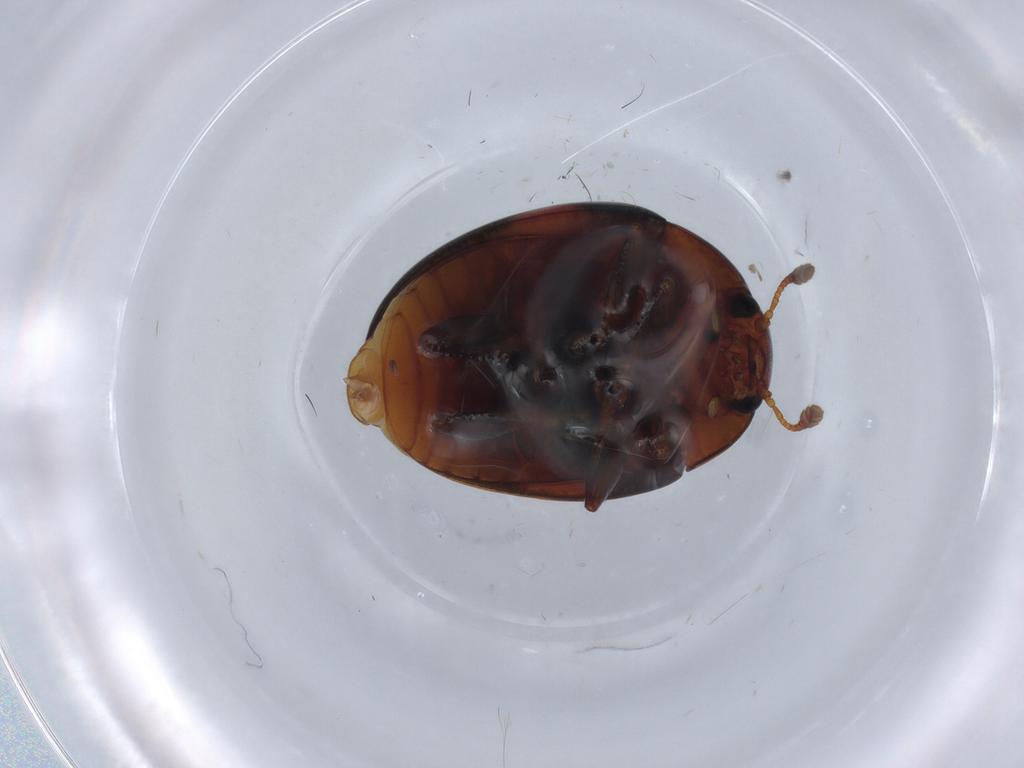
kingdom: Animalia
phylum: Arthropoda
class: Insecta
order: Coleoptera
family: Erotylidae
